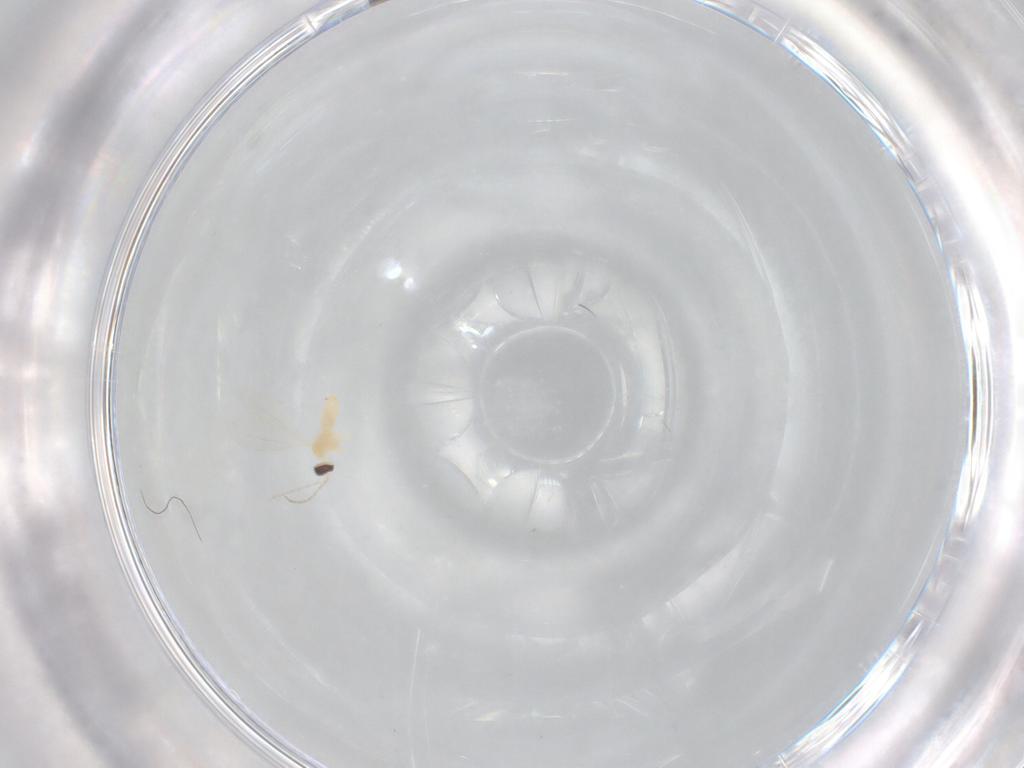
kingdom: Animalia
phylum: Arthropoda
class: Insecta
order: Diptera
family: Cecidomyiidae
